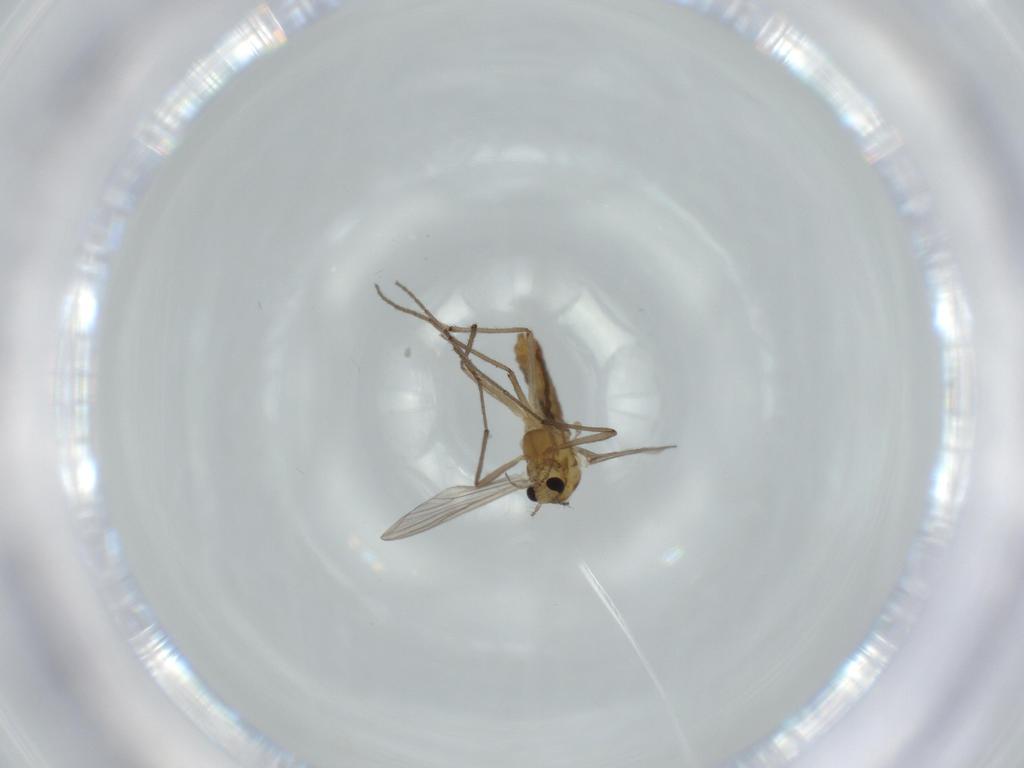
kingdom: Animalia
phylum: Arthropoda
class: Insecta
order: Diptera
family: Chironomidae
